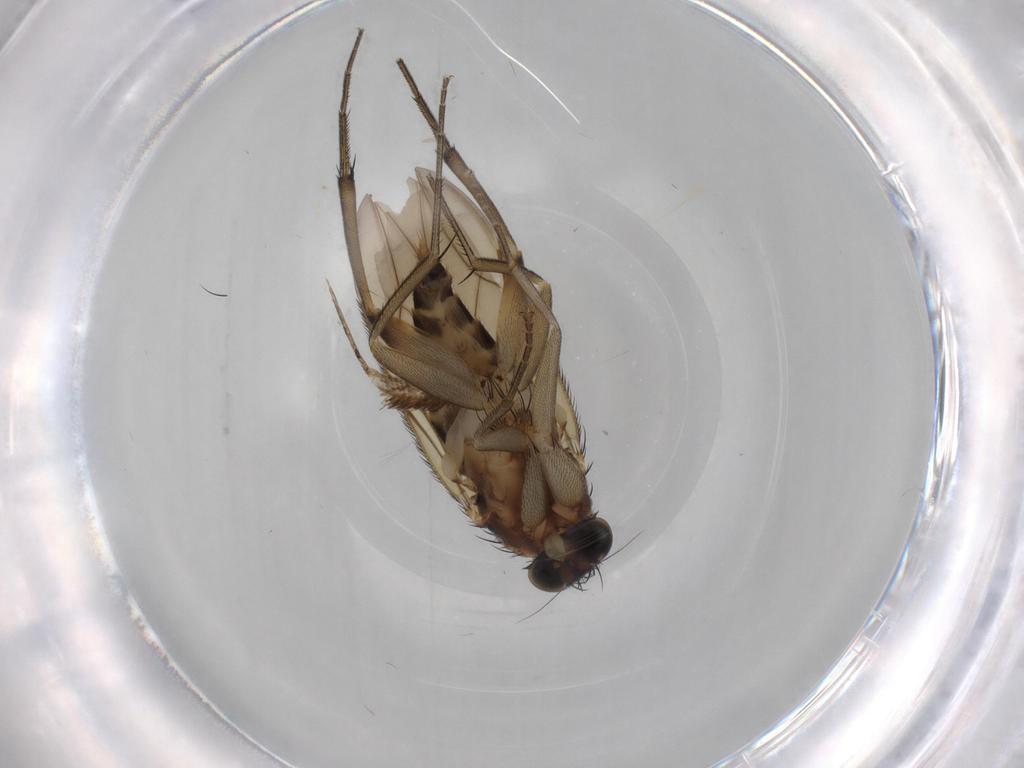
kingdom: Animalia
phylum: Arthropoda
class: Insecta
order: Diptera
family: Phoridae
